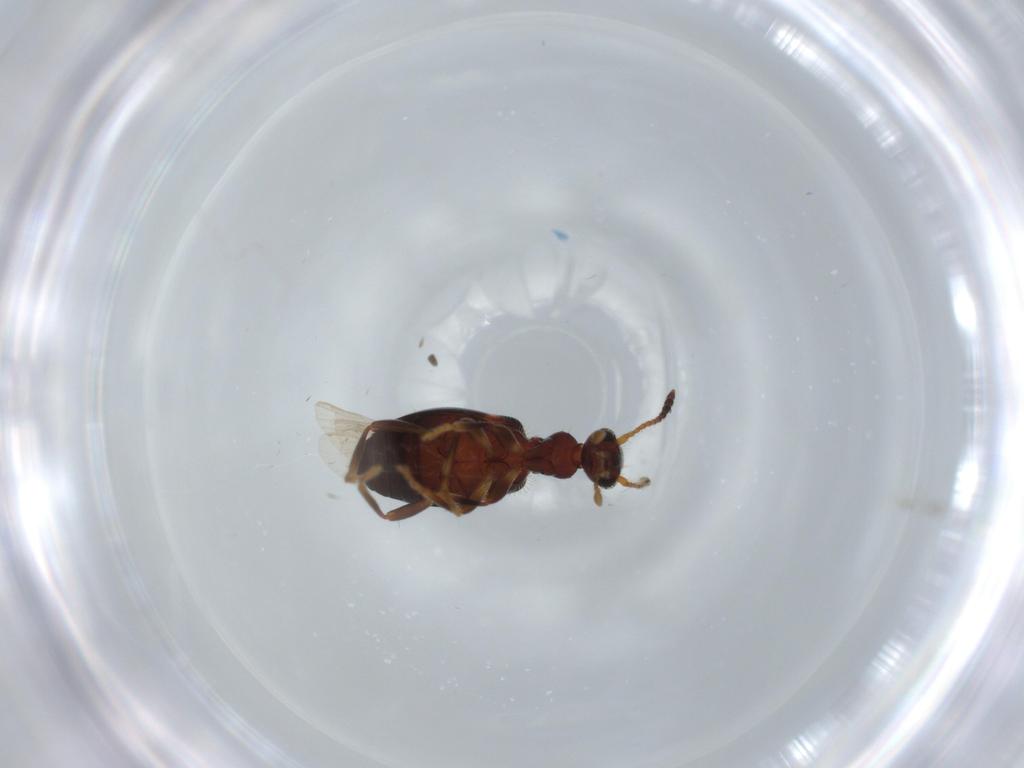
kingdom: Animalia
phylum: Arthropoda
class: Insecta
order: Coleoptera
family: Anthicidae
